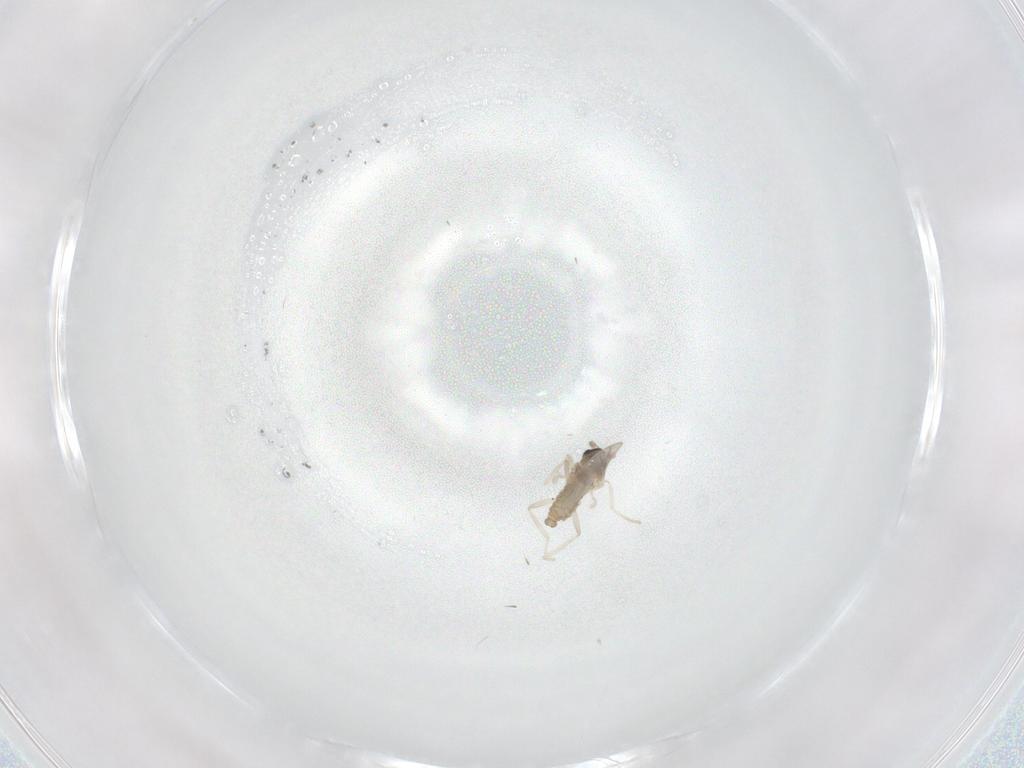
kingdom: Animalia
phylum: Arthropoda
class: Insecta
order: Diptera
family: Cecidomyiidae
